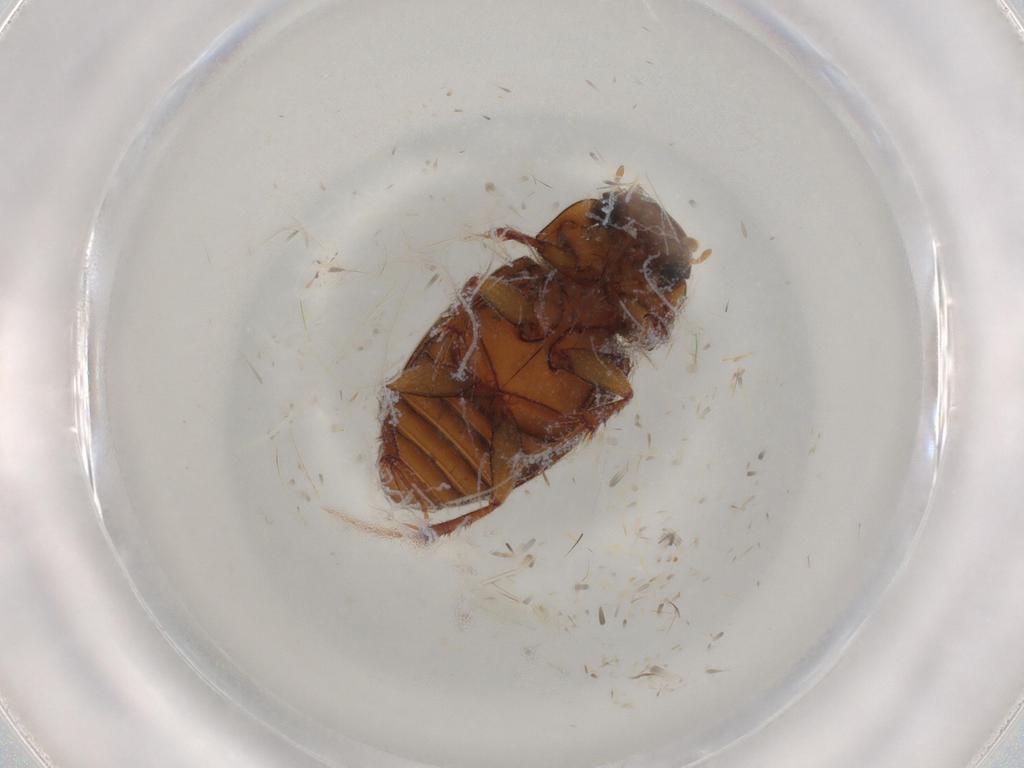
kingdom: Animalia
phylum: Arthropoda
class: Insecta
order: Coleoptera
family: Scarabaeidae
